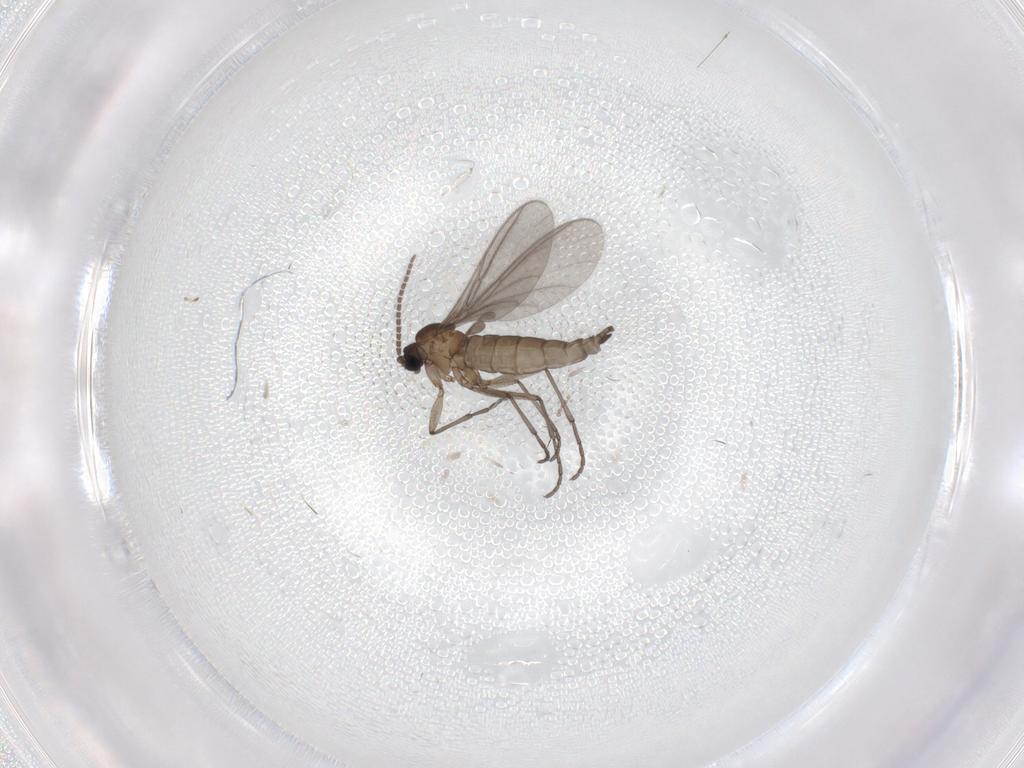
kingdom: Animalia
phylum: Arthropoda
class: Insecta
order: Diptera
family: Sciaridae
